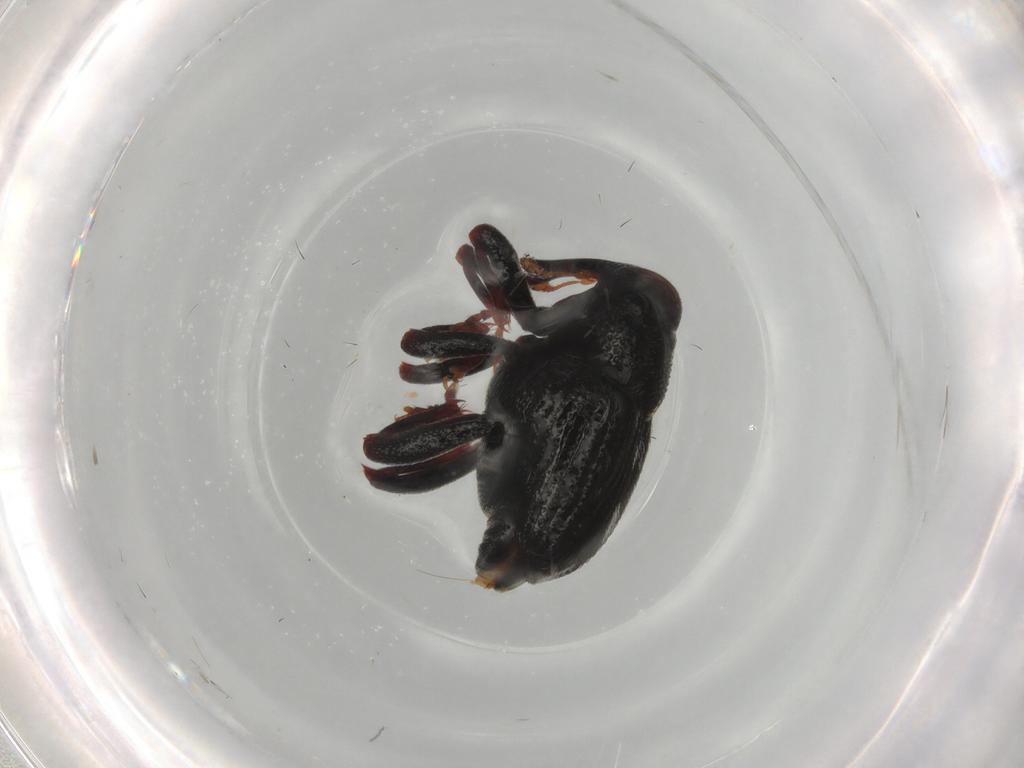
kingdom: Animalia
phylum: Arthropoda
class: Insecta
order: Coleoptera
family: Curculionidae
